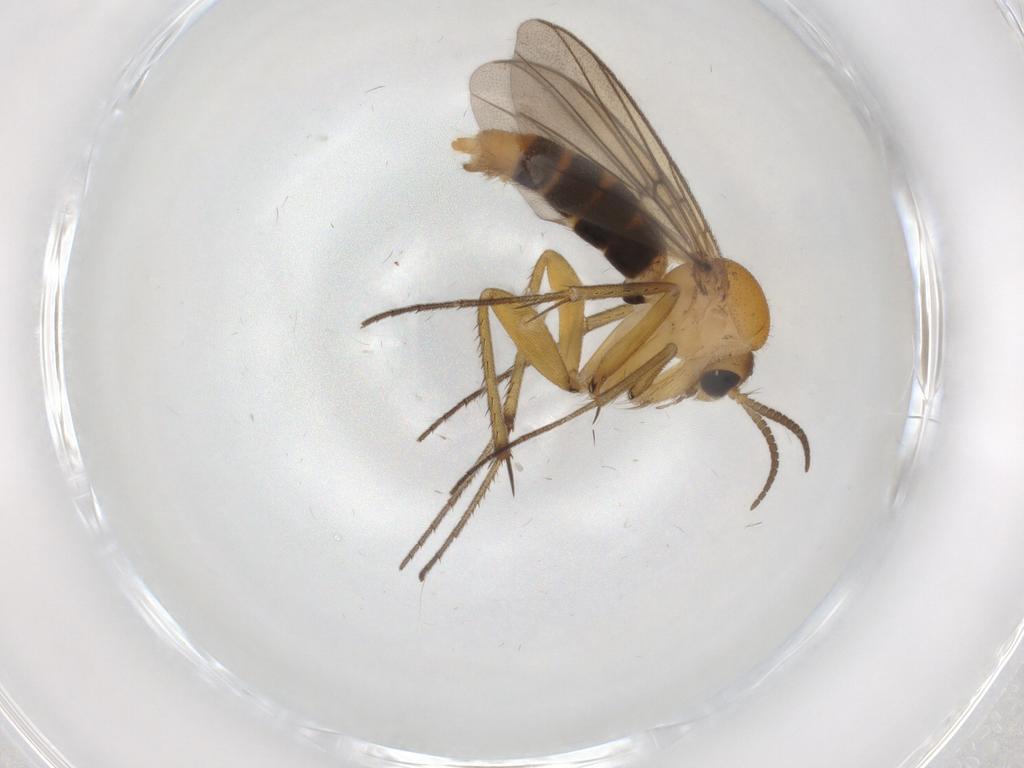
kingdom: Animalia
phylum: Arthropoda
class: Insecta
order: Diptera
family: Mycetophilidae
